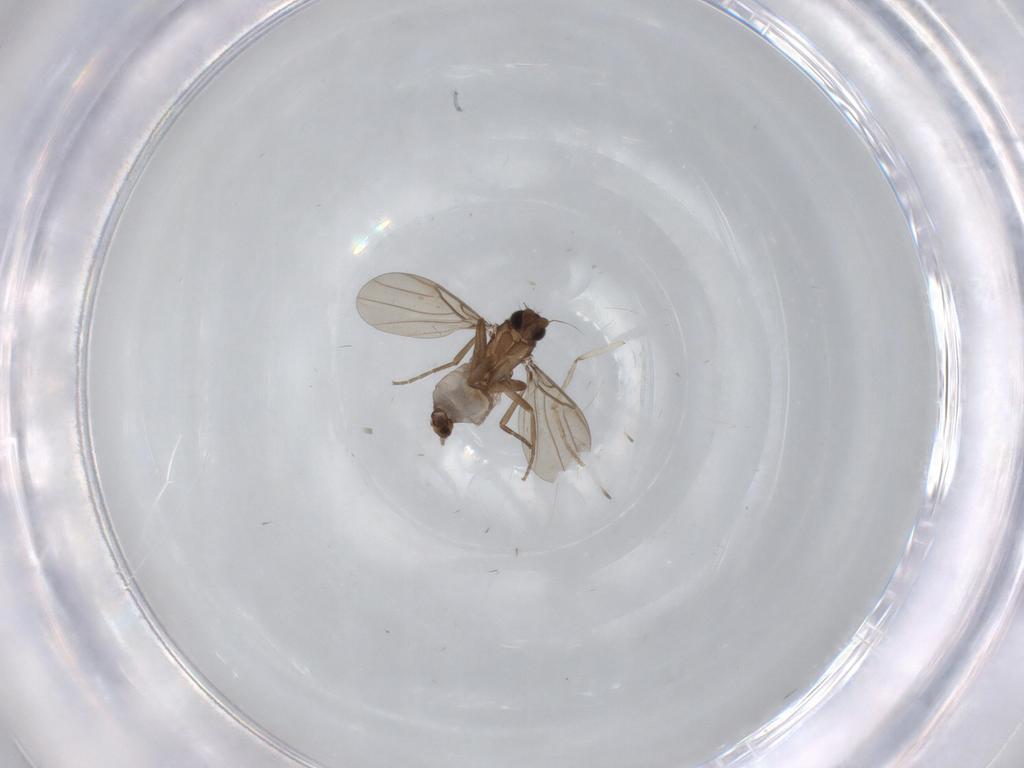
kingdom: Animalia
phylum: Arthropoda
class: Insecta
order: Diptera
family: Phoridae
